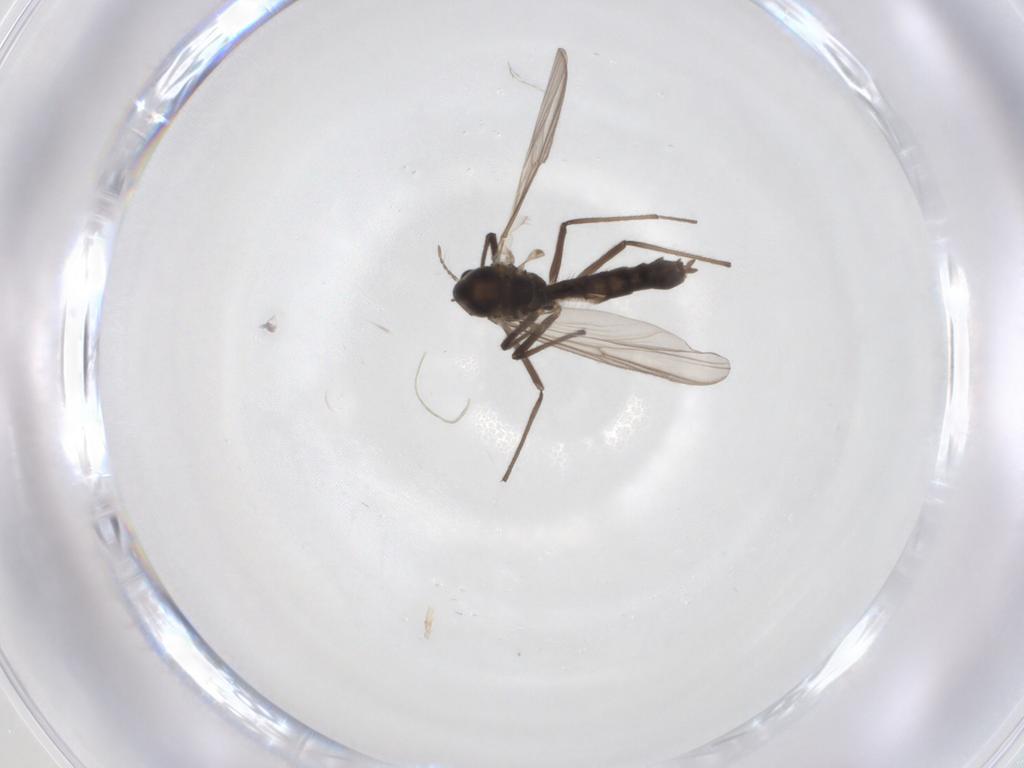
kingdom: Animalia
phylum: Arthropoda
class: Insecta
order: Diptera
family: Chironomidae
